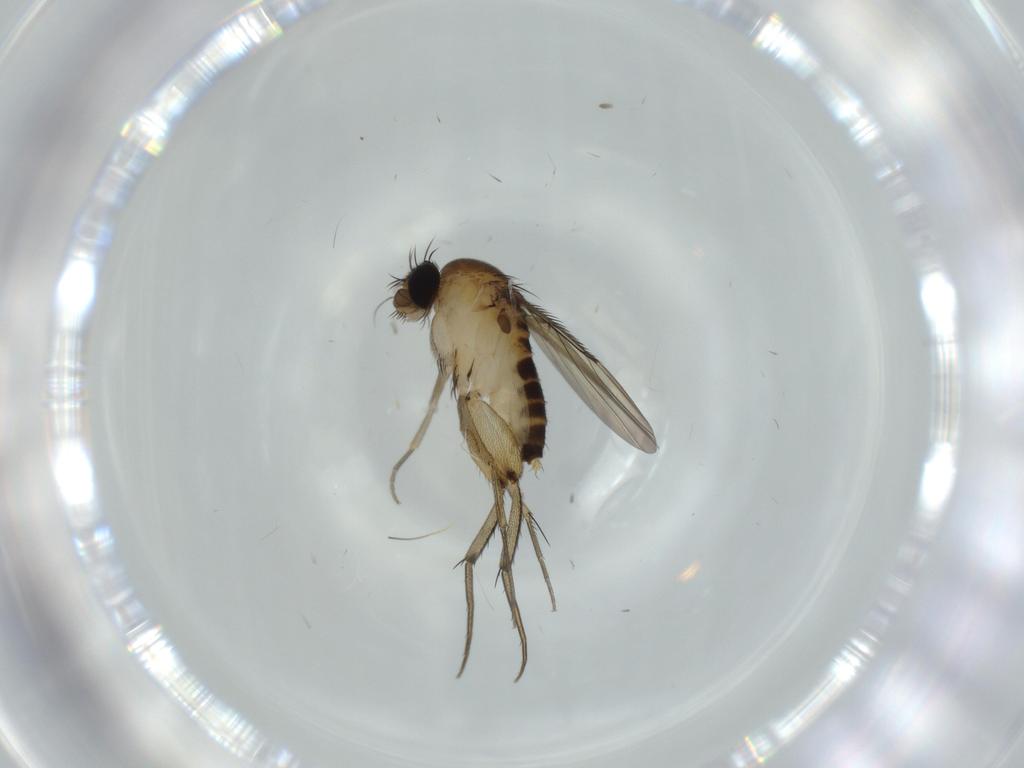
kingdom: Animalia
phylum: Arthropoda
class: Insecta
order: Diptera
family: Phoridae
